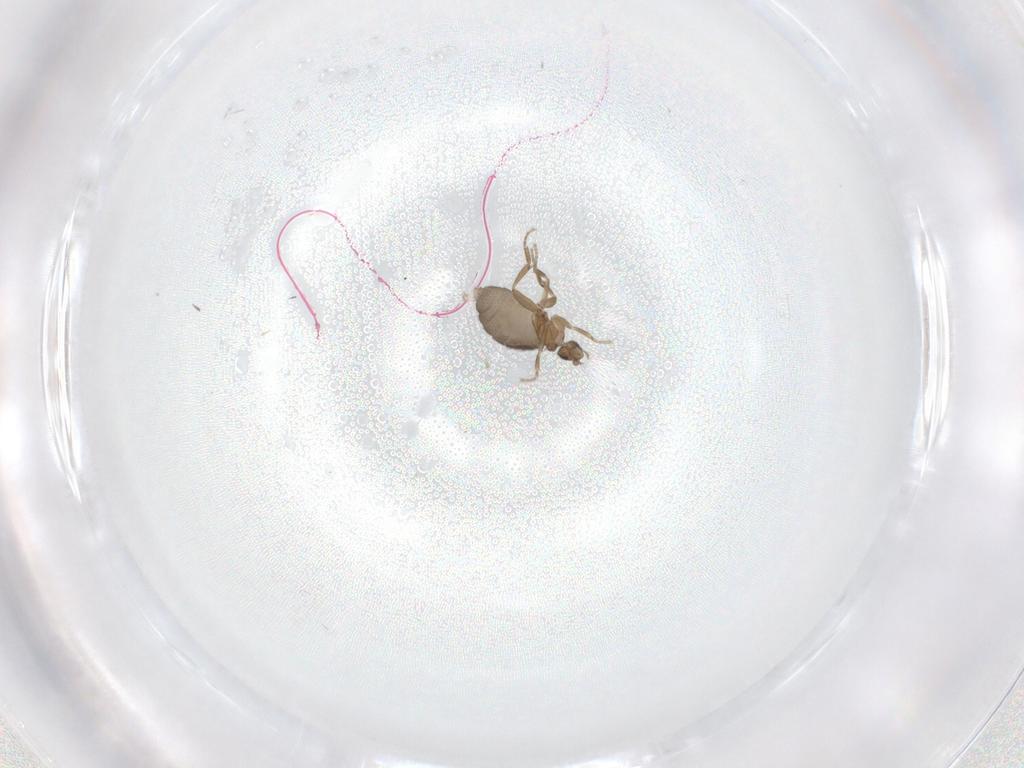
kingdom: Animalia
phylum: Arthropoda
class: Insecta
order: Diptera
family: Phoridae
